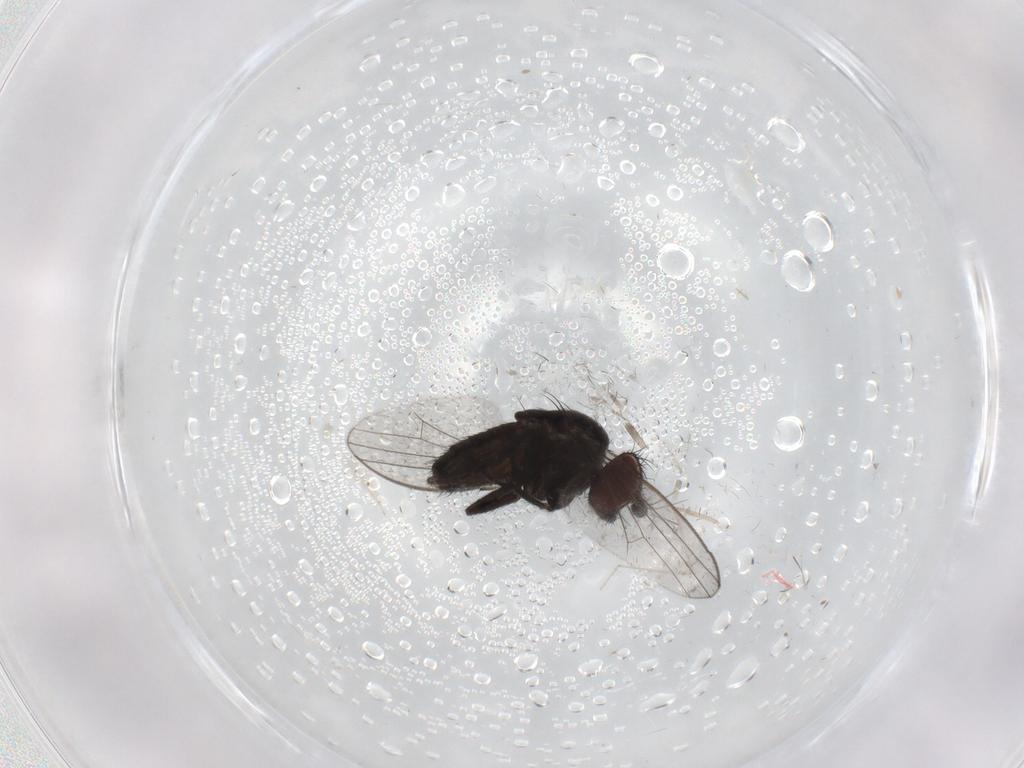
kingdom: Animalia
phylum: Arthropoda
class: Insecta
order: Diptera
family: Milichiidae
